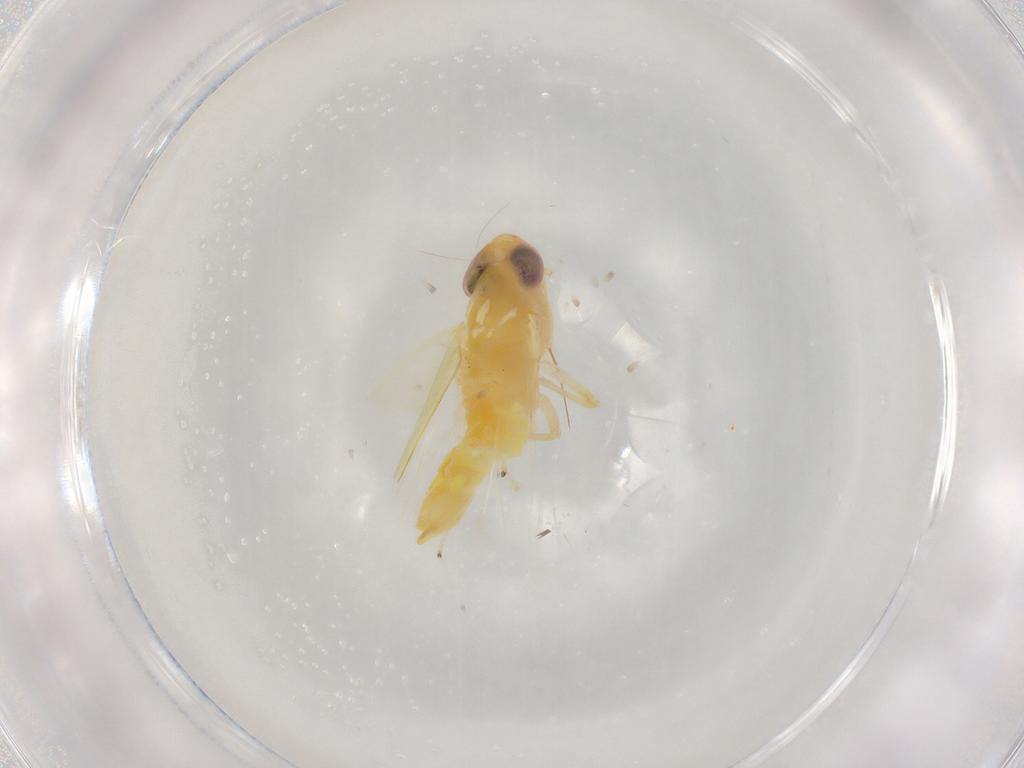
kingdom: Animalia
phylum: Arthropoda
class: Insecta
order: Hemiptera
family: Cicadellidae
